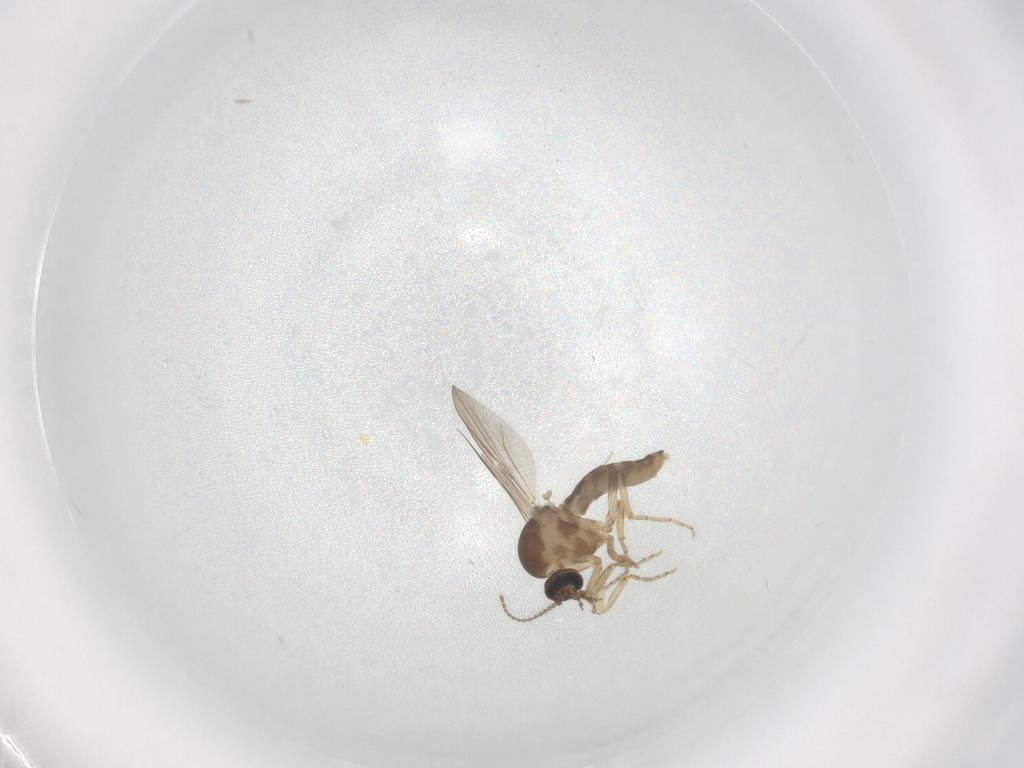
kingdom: Animalia
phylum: Arthropoda
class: Insecta
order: Diptera
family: Cecidomyiidae
